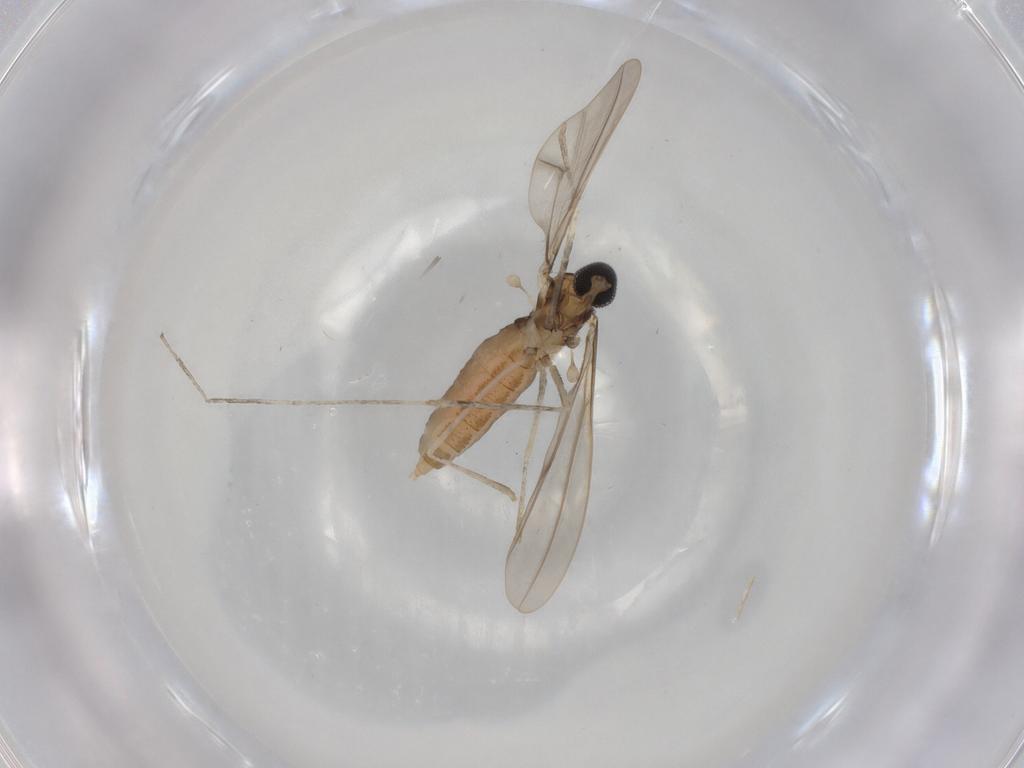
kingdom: Animalia
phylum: Arthropoda
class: Insecta
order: Diptera
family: Cecidomyiidae
